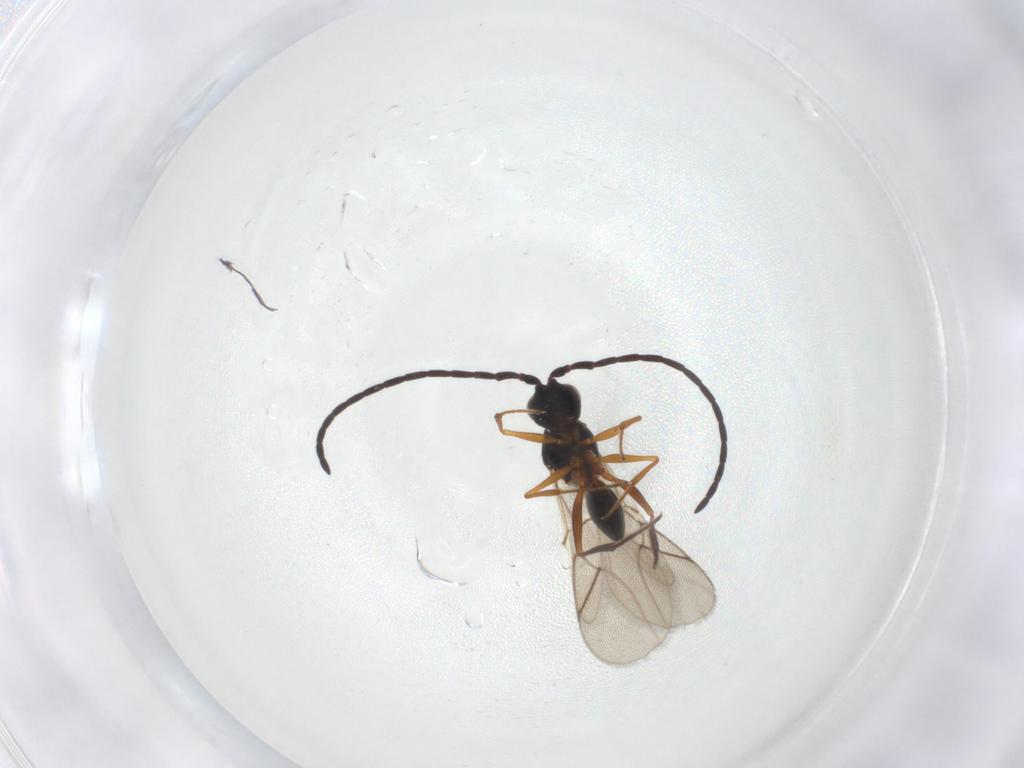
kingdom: Animalia
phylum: Arthropoda
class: Insecta
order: Hymenoptera
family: Figitidae
